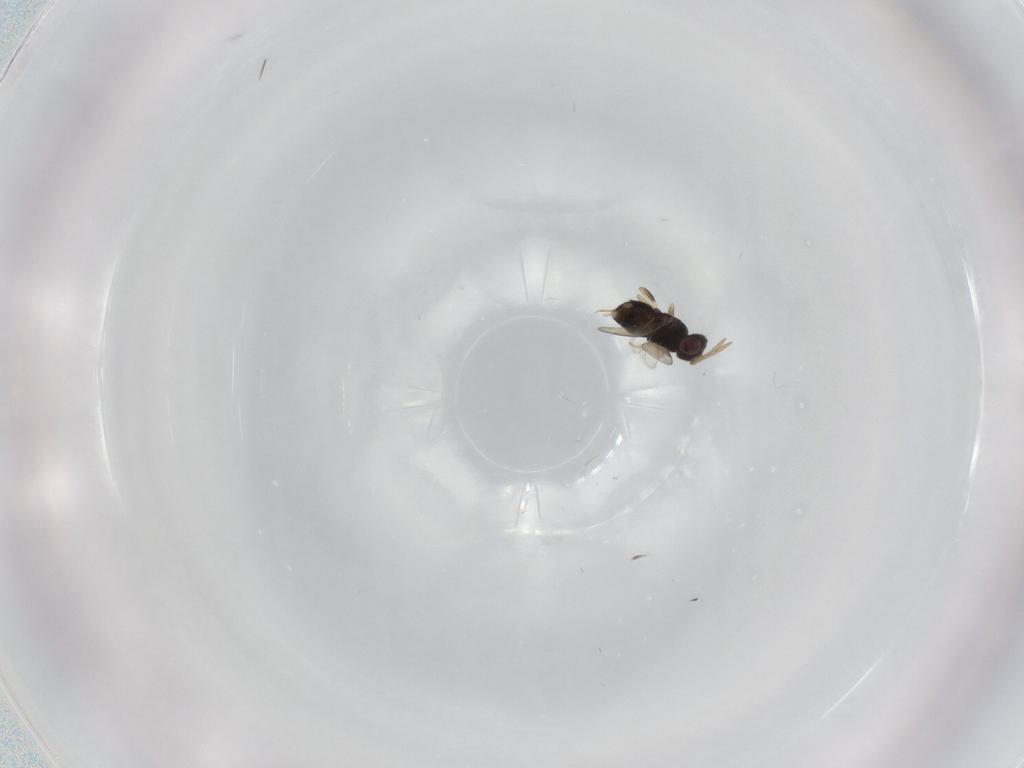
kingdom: Animalia
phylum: Arthropoda
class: Insecta
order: Hymenoptera
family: Aphelinidae
